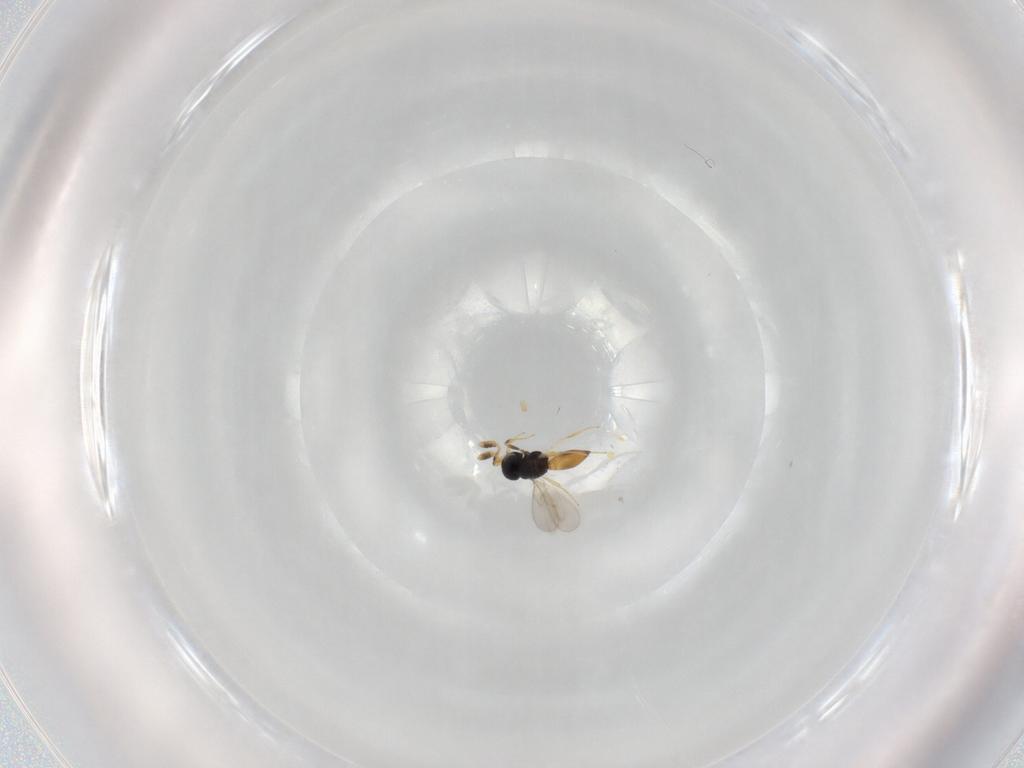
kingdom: Animalia
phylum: Arthropoda
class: Insecta
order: Hymenoptera
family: Scelionidae
